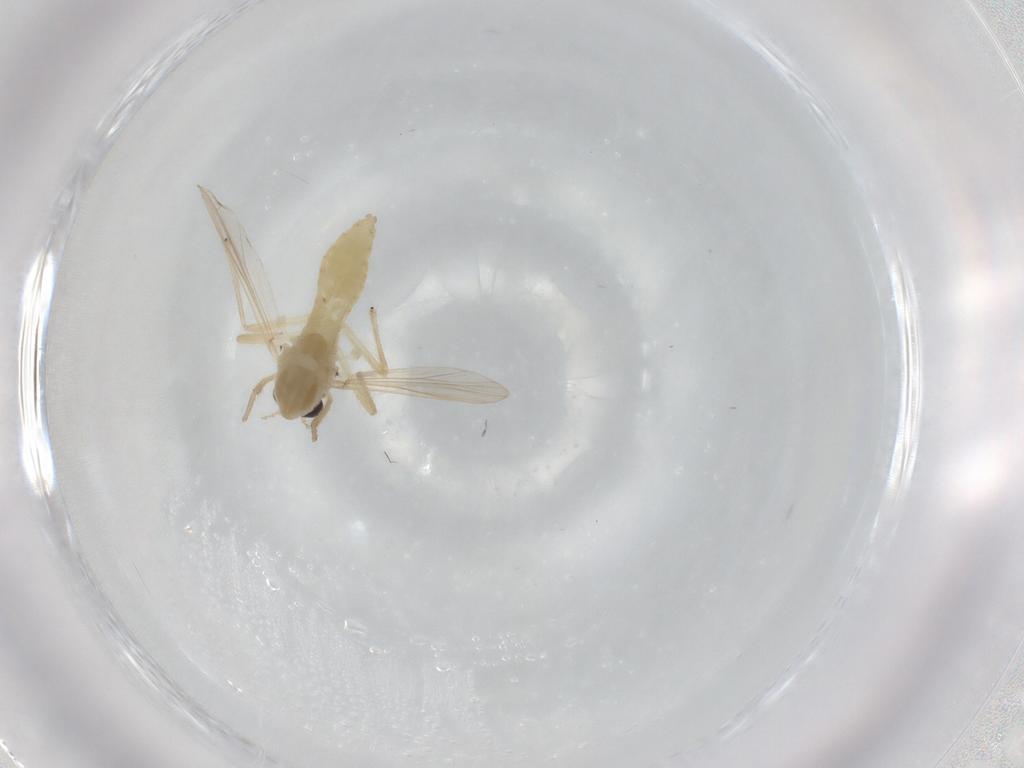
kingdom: Animalia
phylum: Arthropoda
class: Insecta
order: Diptera
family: Chironomidae
